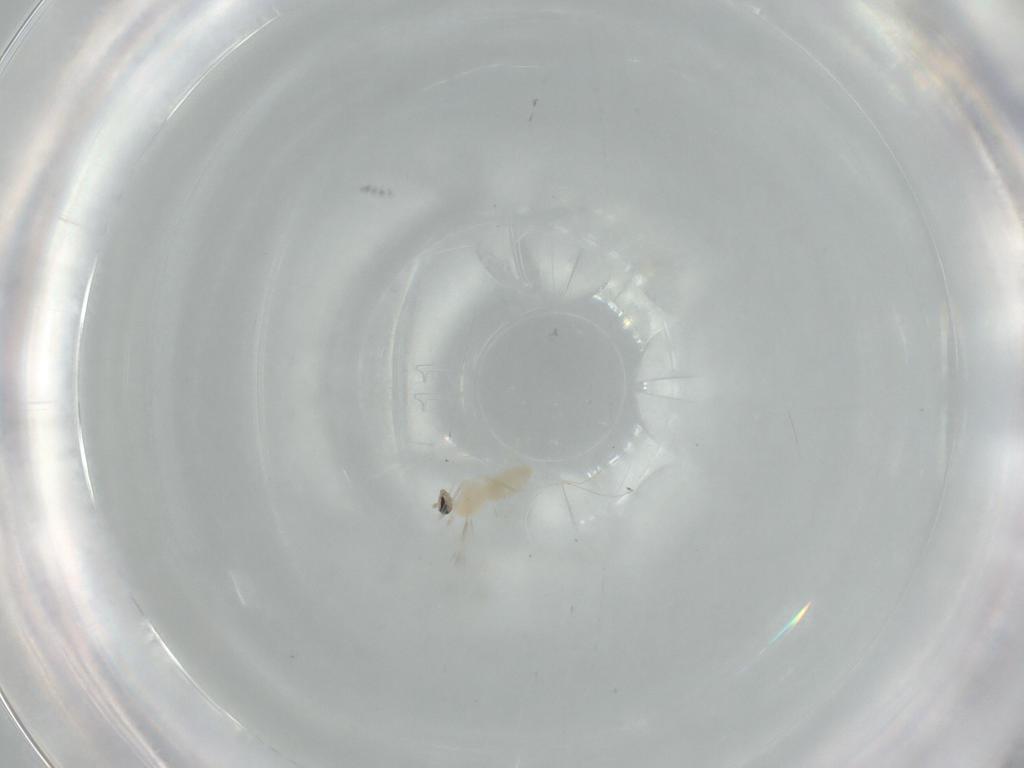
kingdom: Animalia
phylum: Arthropoda
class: Insecta
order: Diptera
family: Cecidomyiidae
